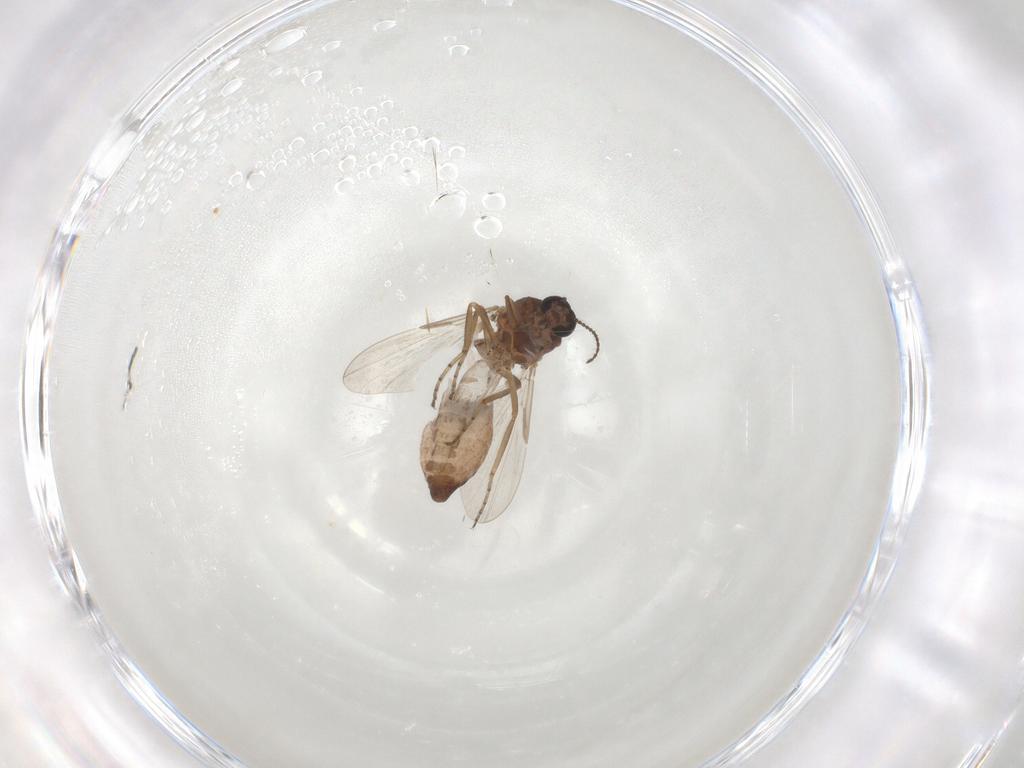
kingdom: Animalia
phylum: Arthropoda
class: Insecta
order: Diptera
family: Ceratopogonidae
